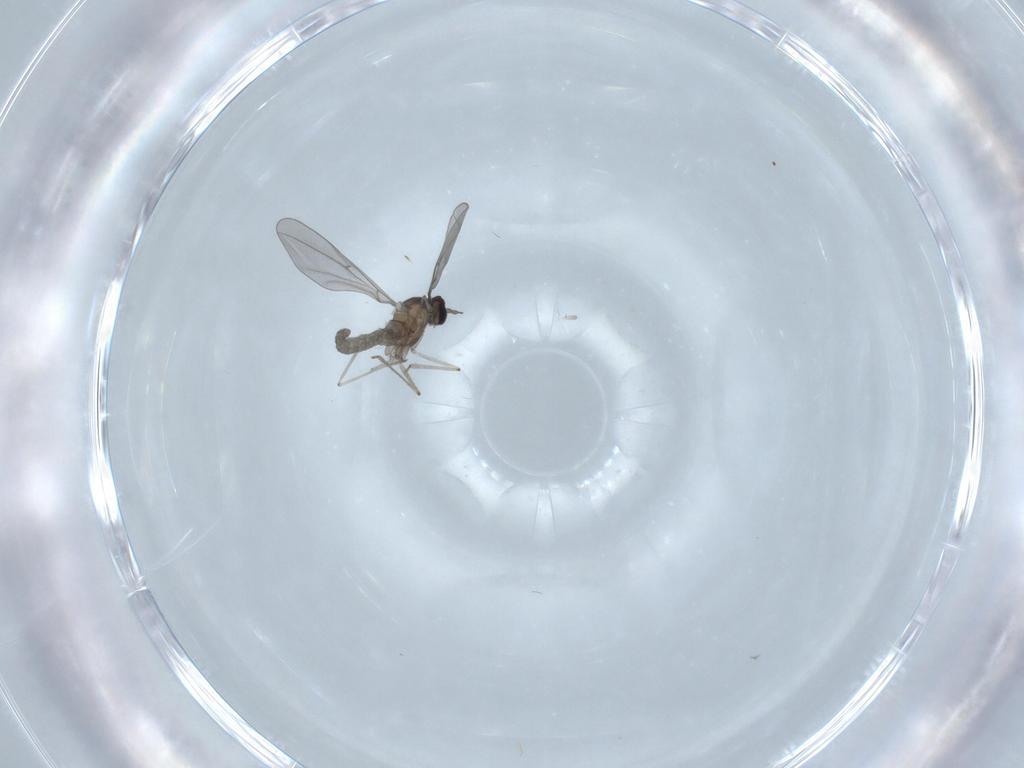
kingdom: Animalia
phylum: Arthropoda
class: Insecta
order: Diptera
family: Cecidomyiidae
